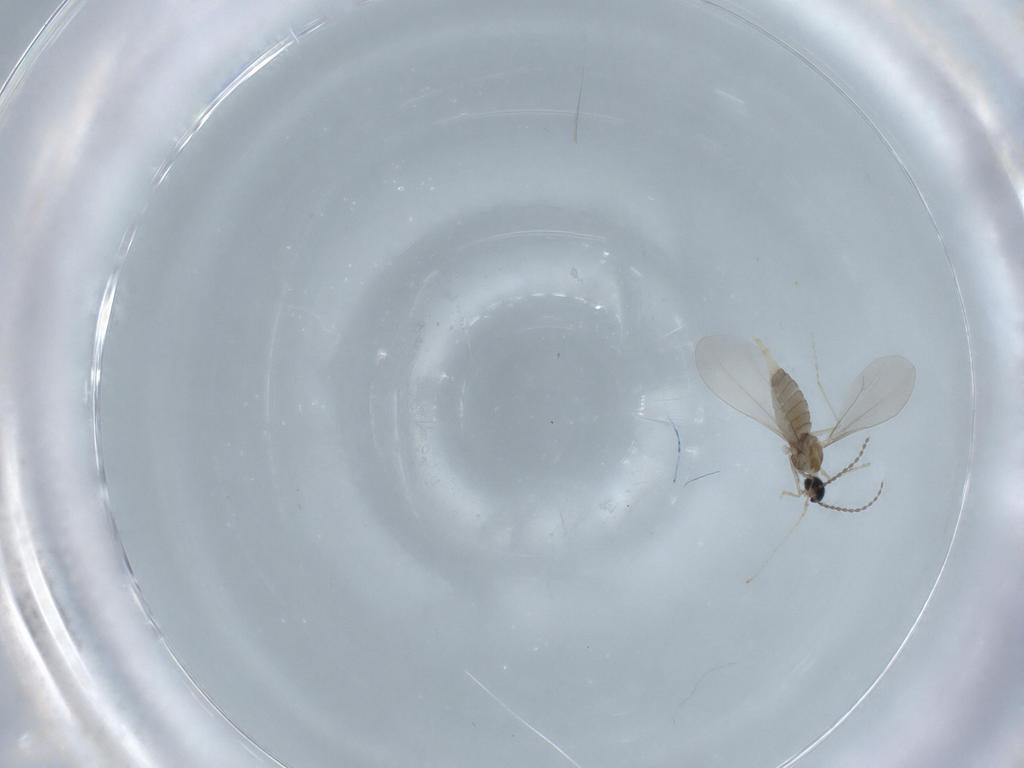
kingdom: Animalia
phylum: Arthropoda
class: Insecta
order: Diptera
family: Cecidomyiidae
